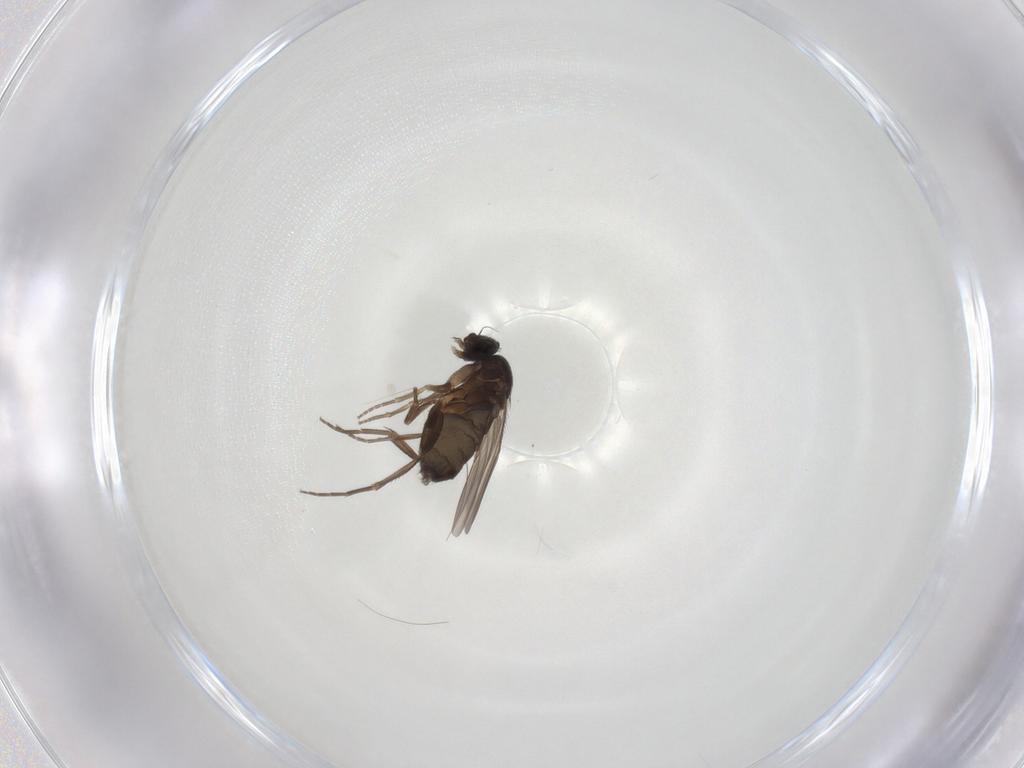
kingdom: Animalia
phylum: Arthropoda
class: Insecta
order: Diptera
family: Phoridae
